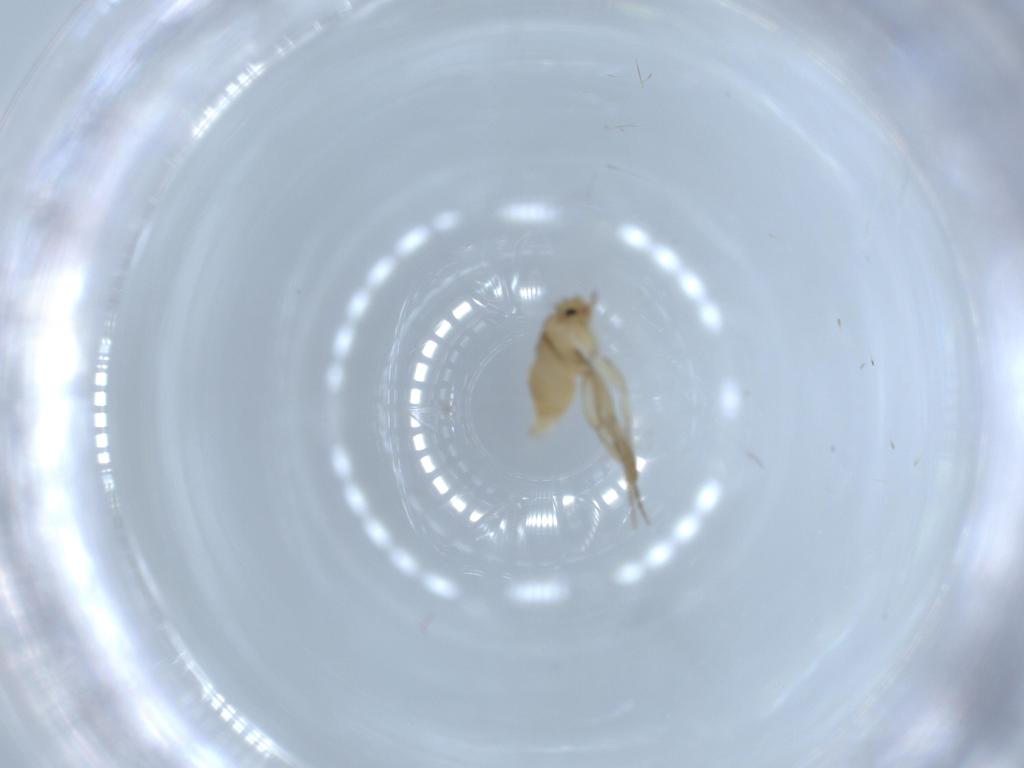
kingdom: Animalia
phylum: Arthropoda
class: Insecta
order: Diptera
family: Phoridae
